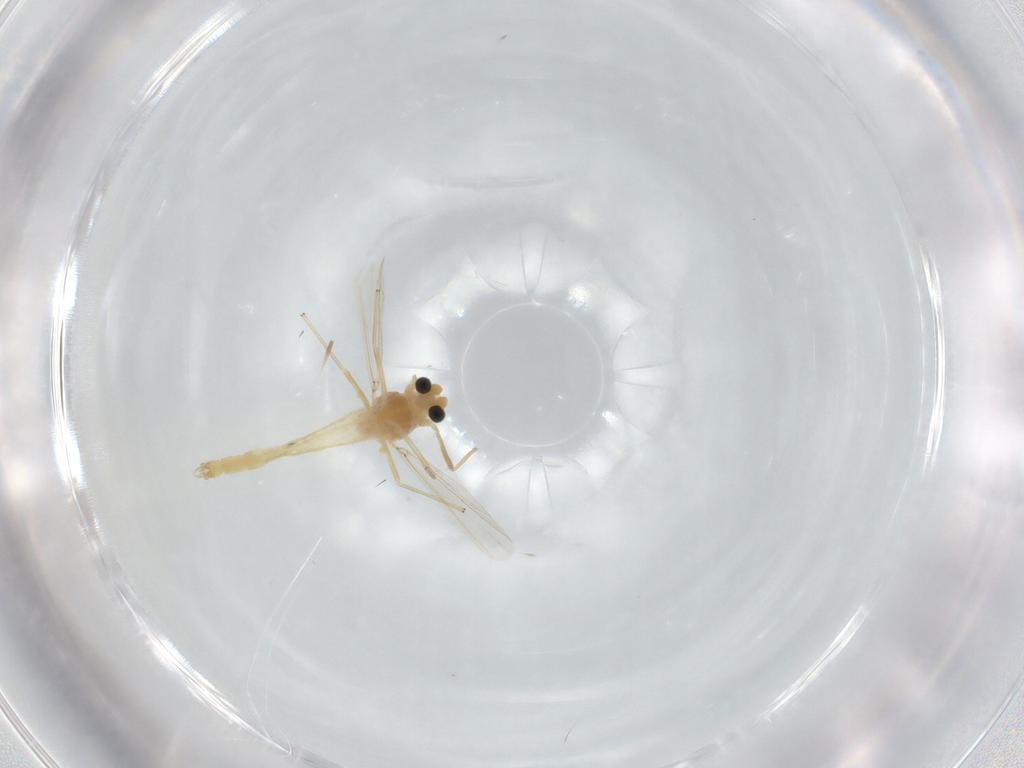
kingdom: Animalia
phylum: Arthropoda
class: Insecta
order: Diptera
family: Chironomidae
